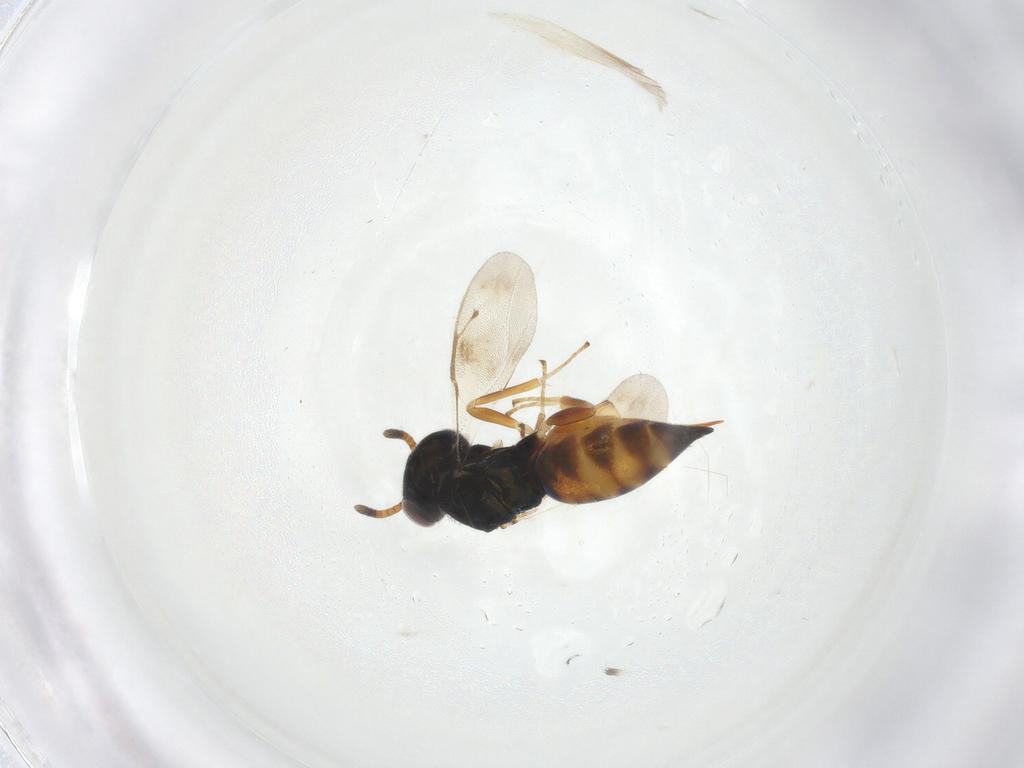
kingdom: Animalia
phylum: Arthropoda
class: Insecta
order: Hymenoptera
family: Pteromalidae
